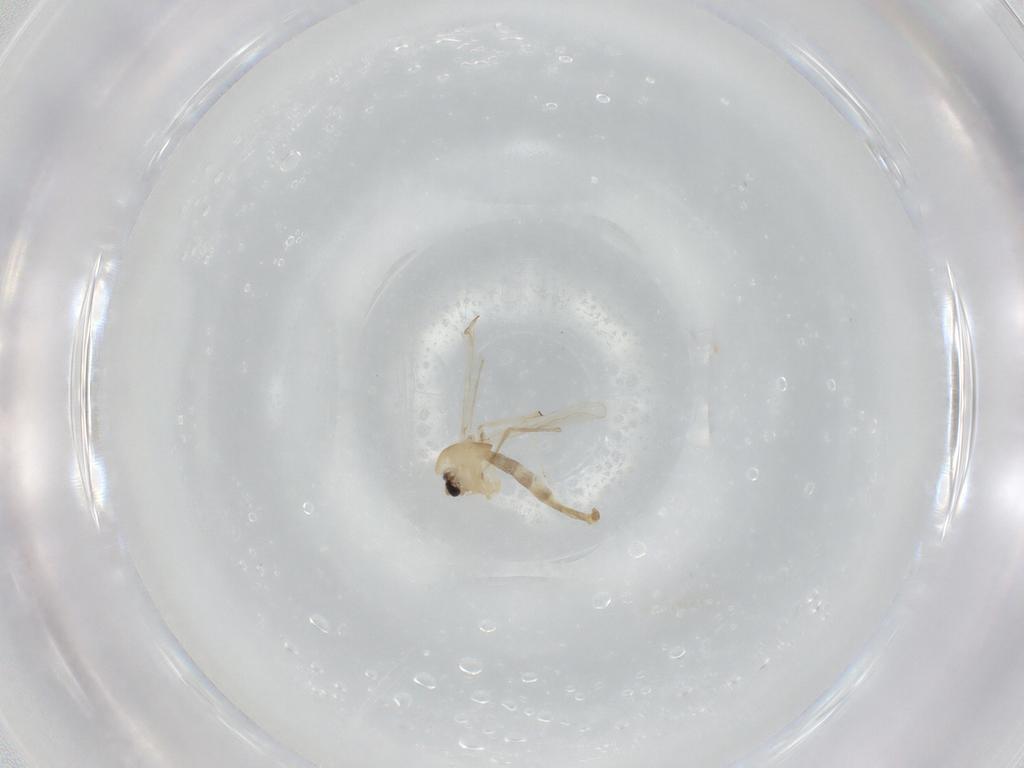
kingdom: Animalia
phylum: Arthropoda
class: Insecta
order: Diptera
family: Chironomidae
